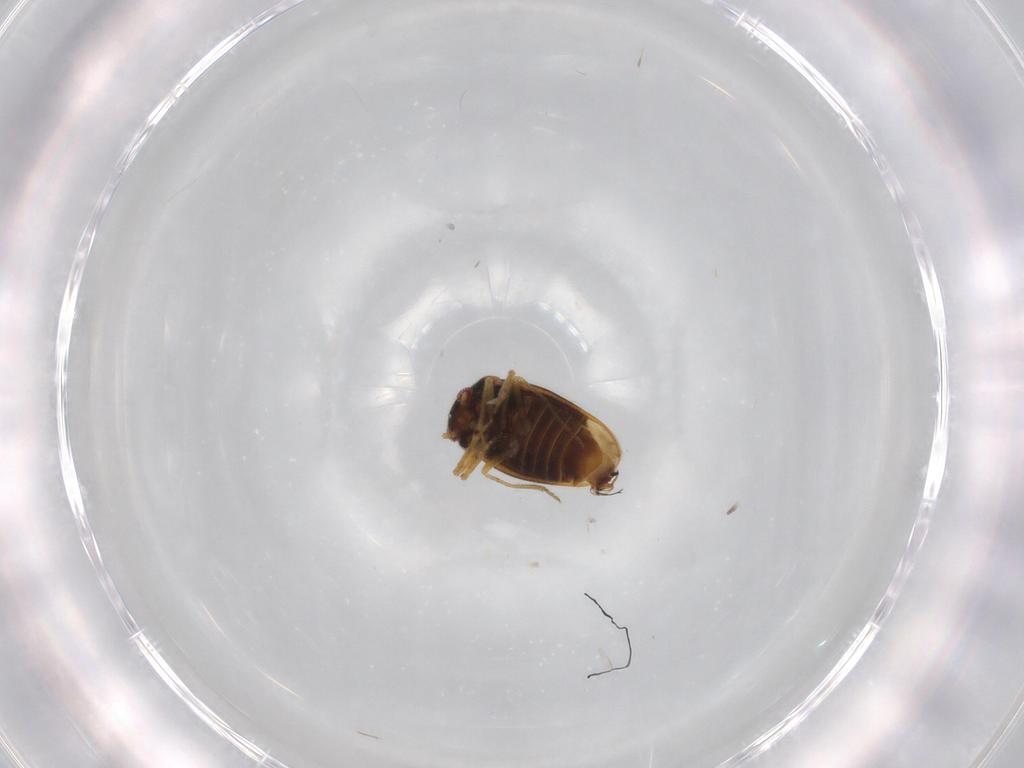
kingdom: Animalia
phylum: Arthropoda
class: Insecta
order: Hemiptera
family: Schizopteridae
